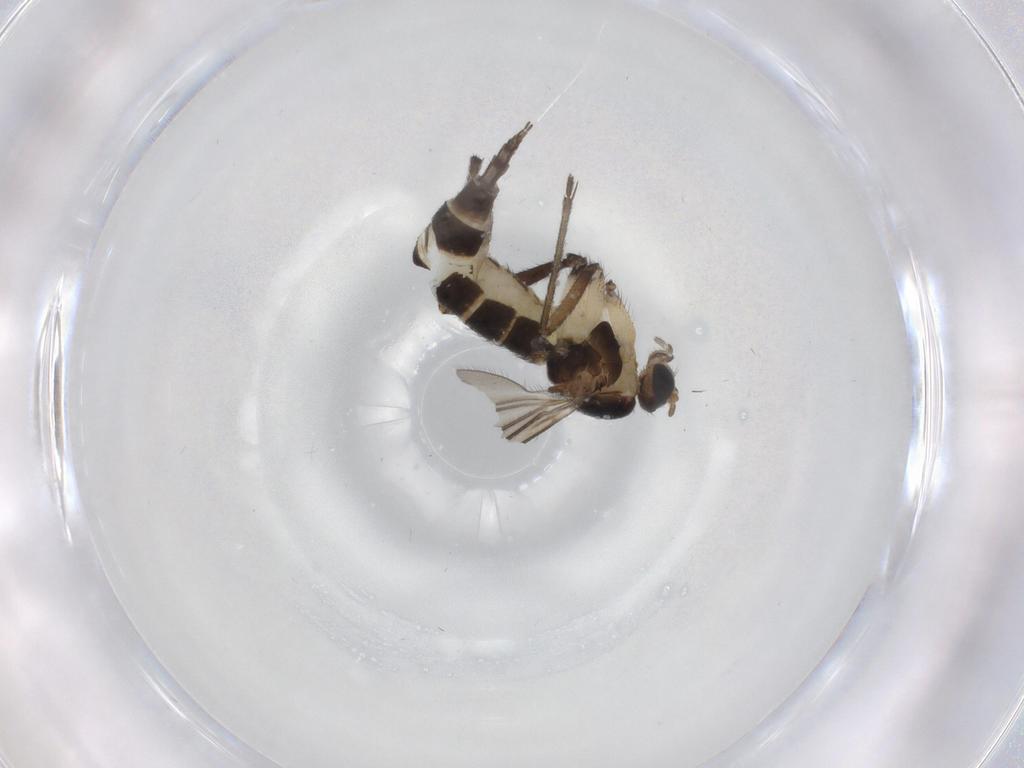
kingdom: Animalia
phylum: Arthropoda
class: Insecta
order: Diptera
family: Sciaridae
